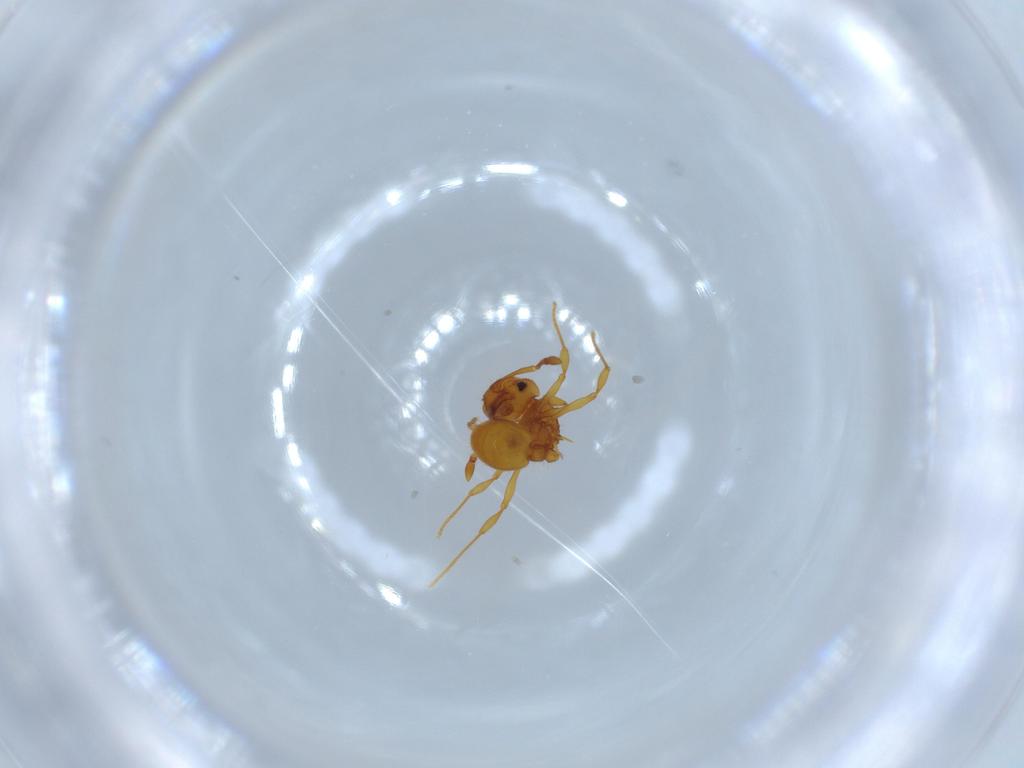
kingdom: Animalia
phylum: Arthropoda
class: Insecta
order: Hymenoptera
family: Formicidae
